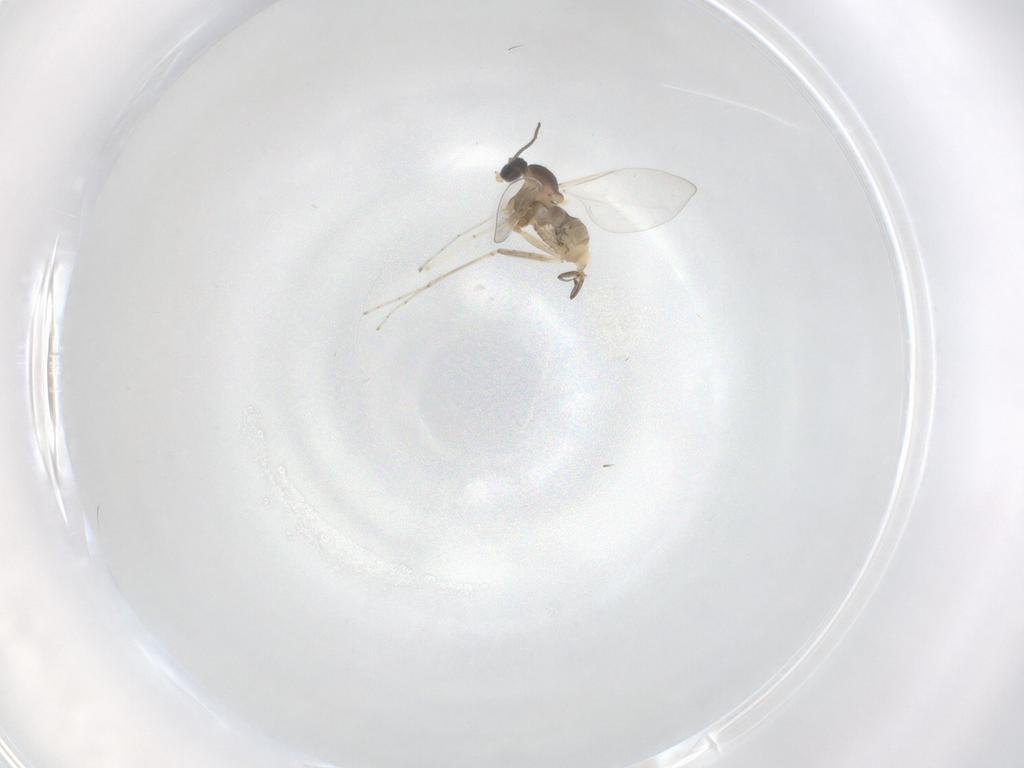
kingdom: Animalia
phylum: Arthropoda
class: Insecta
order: Diptera
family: Cecidomyiidae
